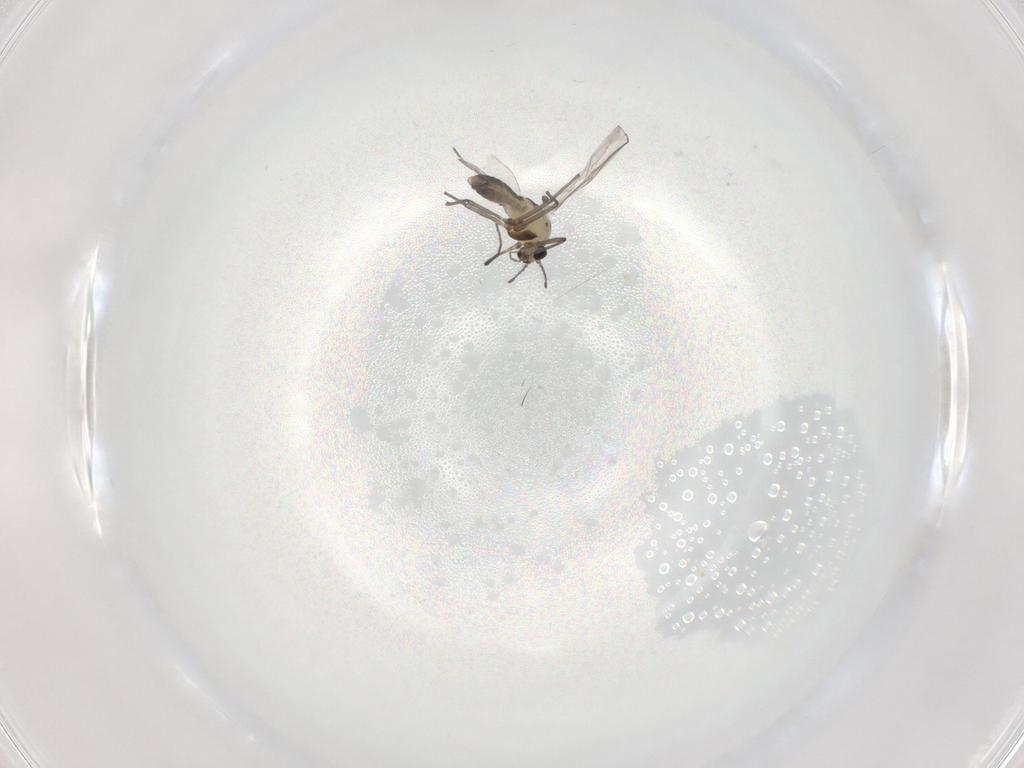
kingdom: Animalia
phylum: Arthropoda
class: Insecta
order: Diptera
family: Chironomidae
